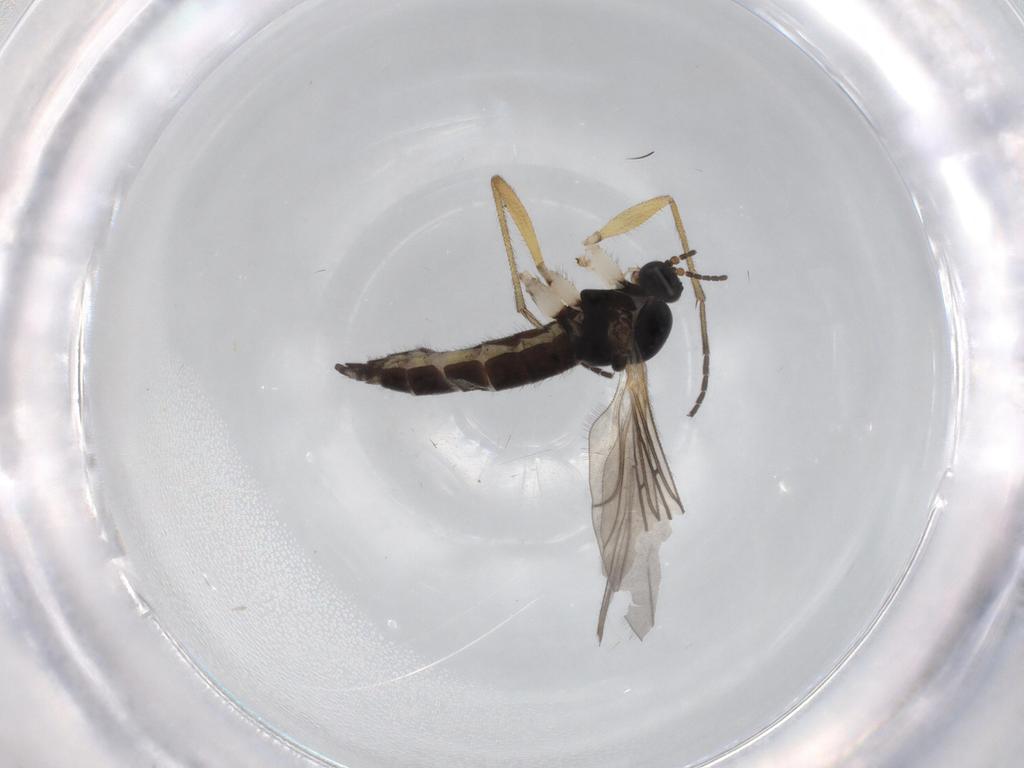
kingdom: Animalia
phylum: Arthropoda
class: Insecta
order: Diptera
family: Sciaridae
